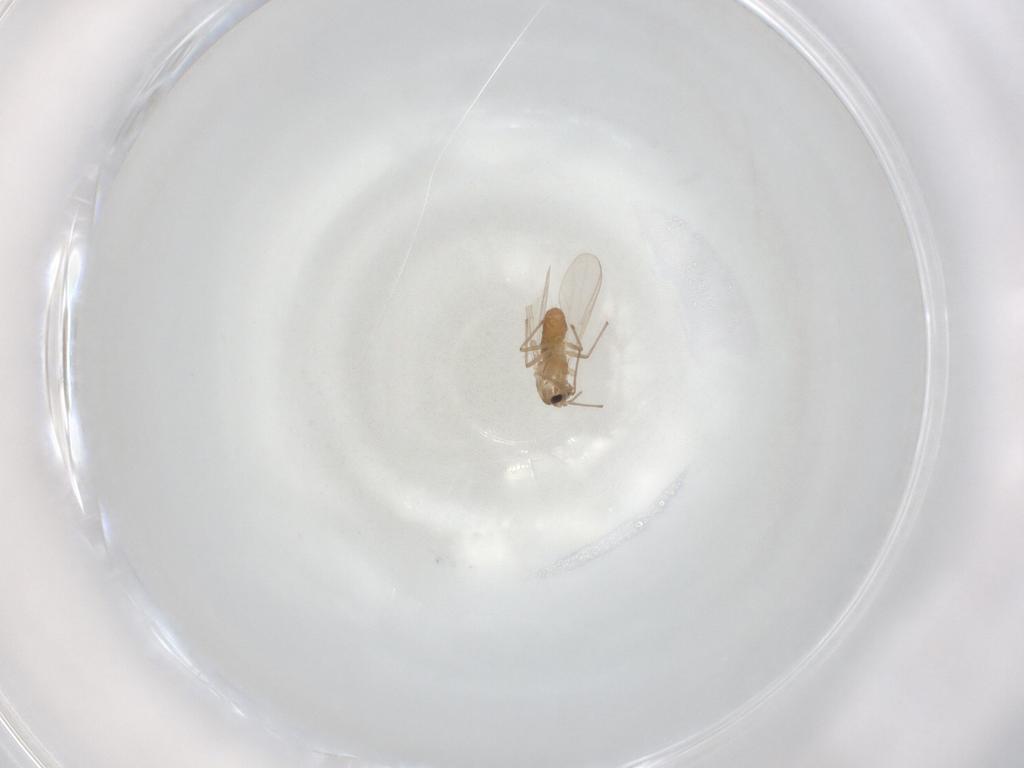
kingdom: Animalia
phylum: Arthropoda
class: Insecta
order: Diptera
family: Chironomidae
